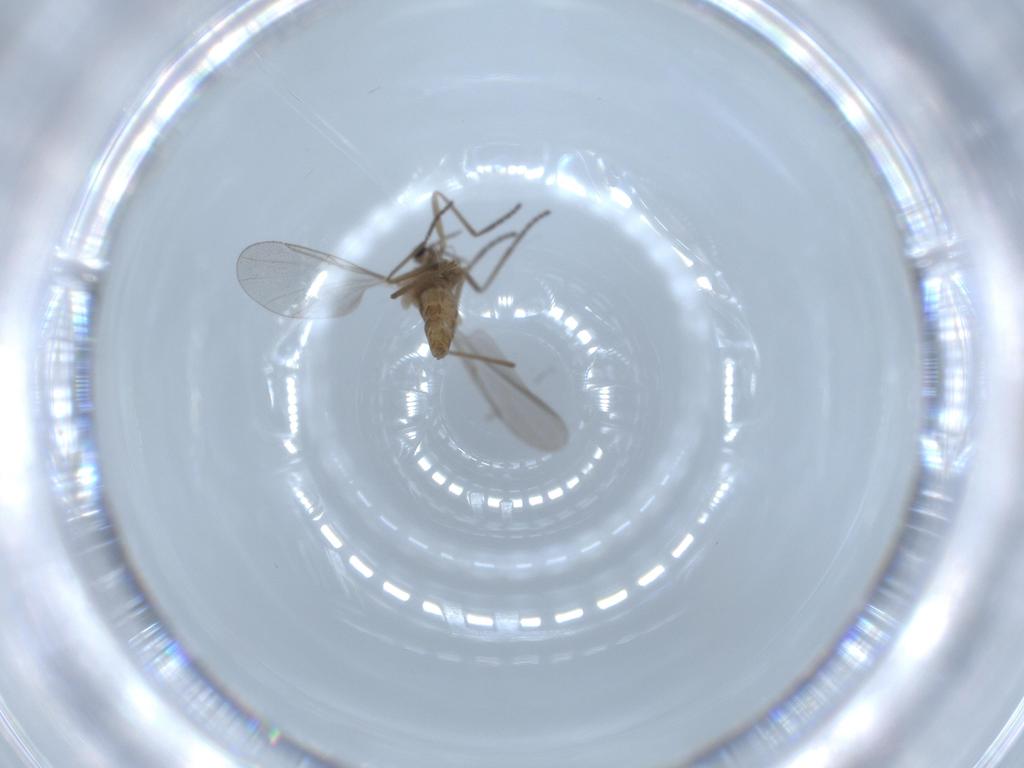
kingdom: Animalia
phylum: Arthropoda
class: Insecta
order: Diptera
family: Cecidomyiidae
